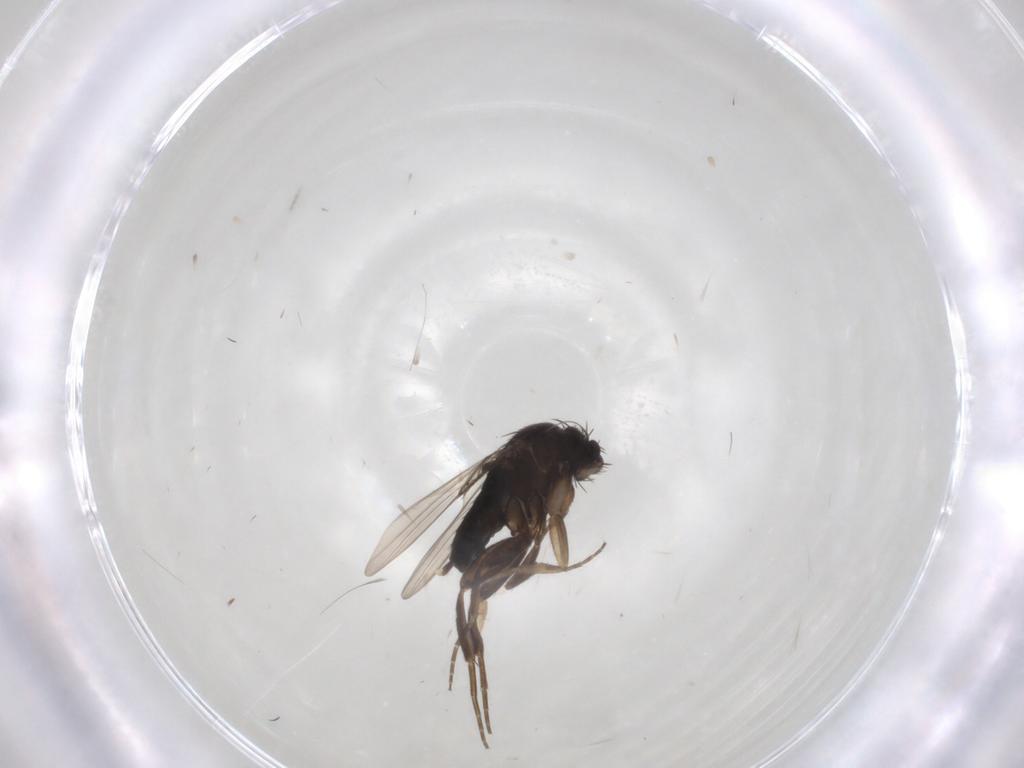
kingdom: Animalia
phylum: Arthropoda
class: Insecta
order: Diptera
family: Phoridae
